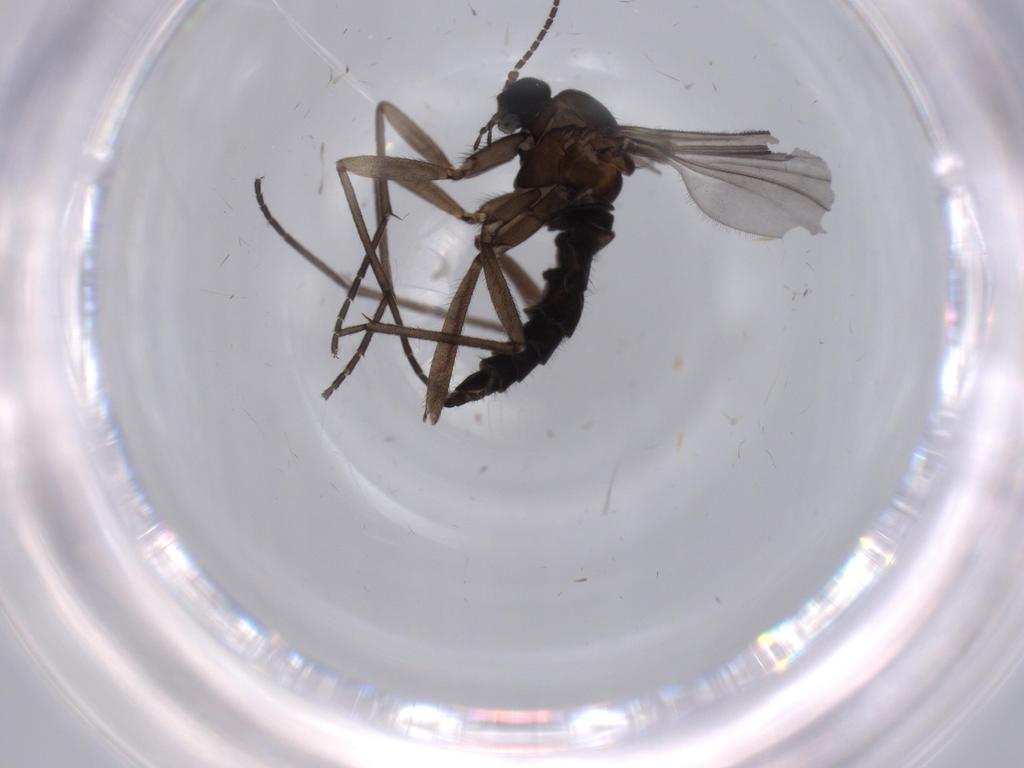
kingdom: Animalia
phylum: Arthropoda
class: Insecta
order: Diptera
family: Sciaridae
